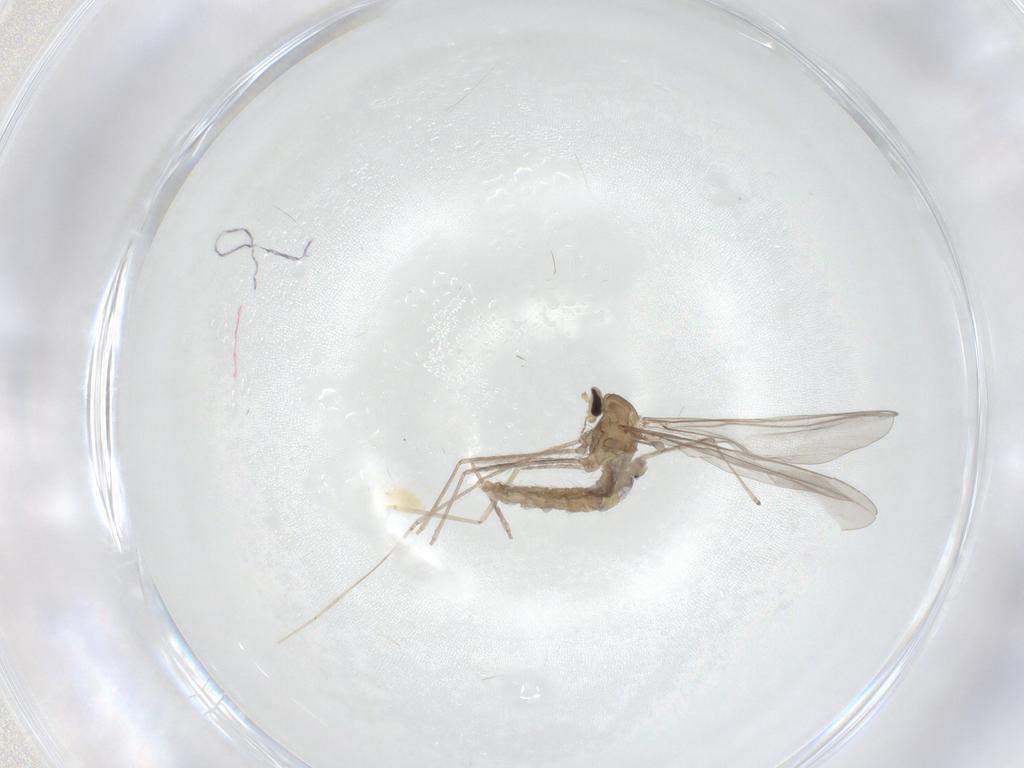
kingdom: Animalia
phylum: Arthropoda
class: Insecta
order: Diptera
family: Cecidomyiidae
